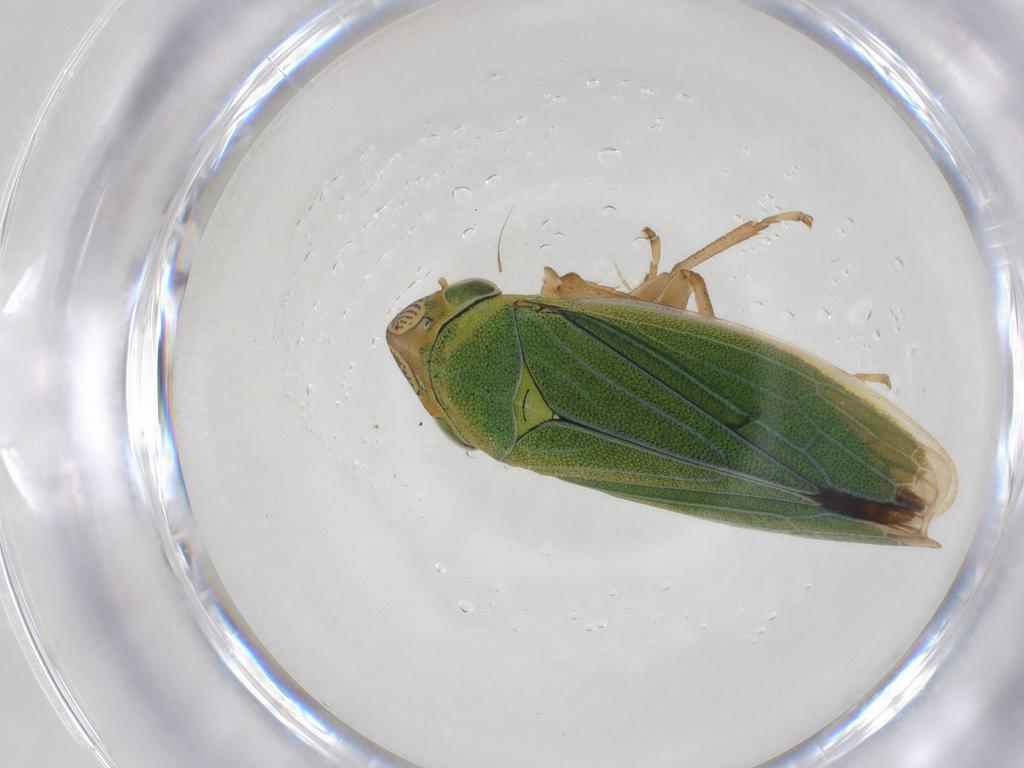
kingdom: Animalia
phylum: Arthropoda
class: Insecta
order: Hemiptera
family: Cicadellidae
